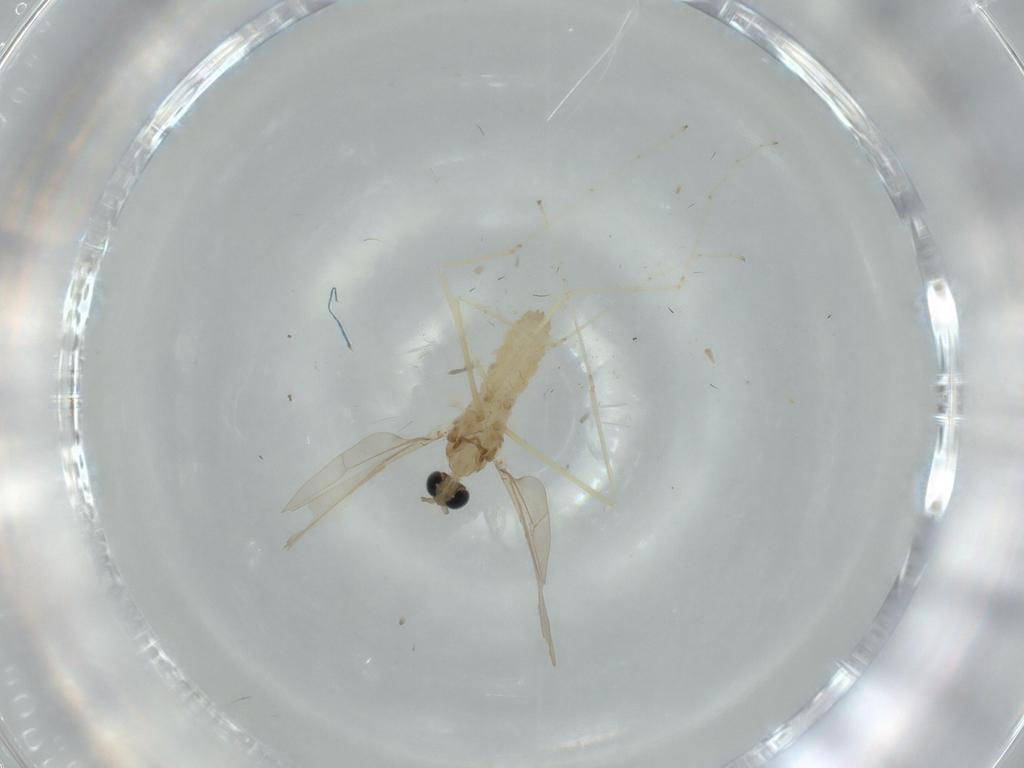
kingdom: Animalia
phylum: Arthropoda
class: Insecta
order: Diptera
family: Cecidomyiidae
